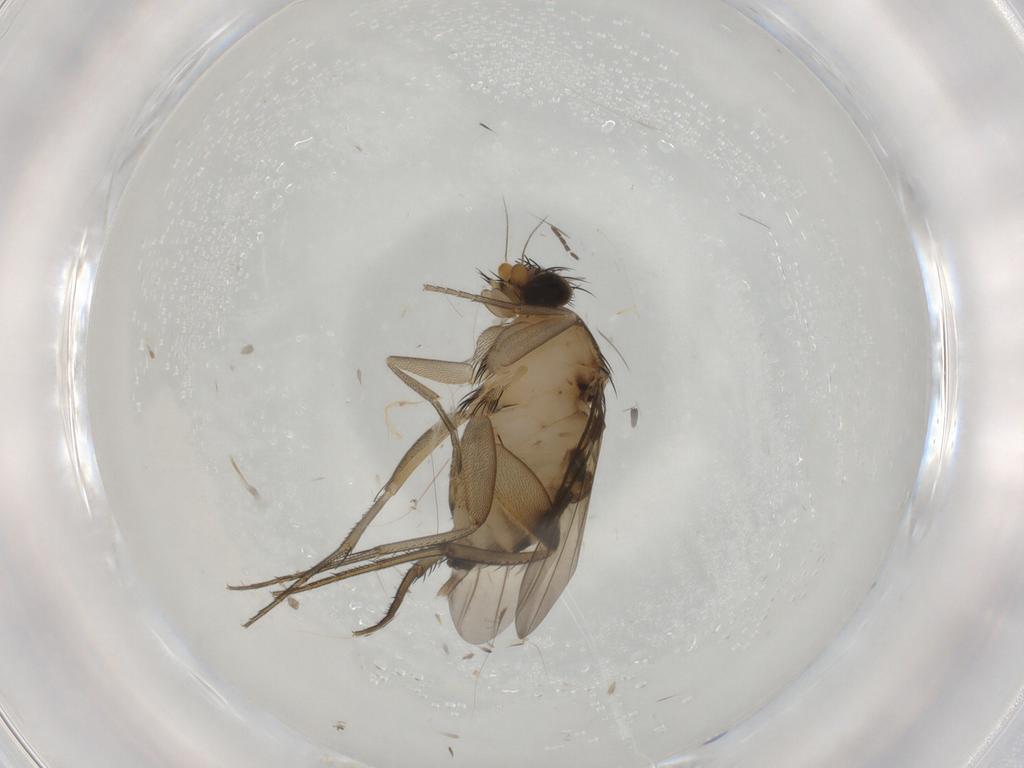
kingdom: Animalia
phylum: Arthropoda
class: Insecta
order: Diptera
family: Phoridae
